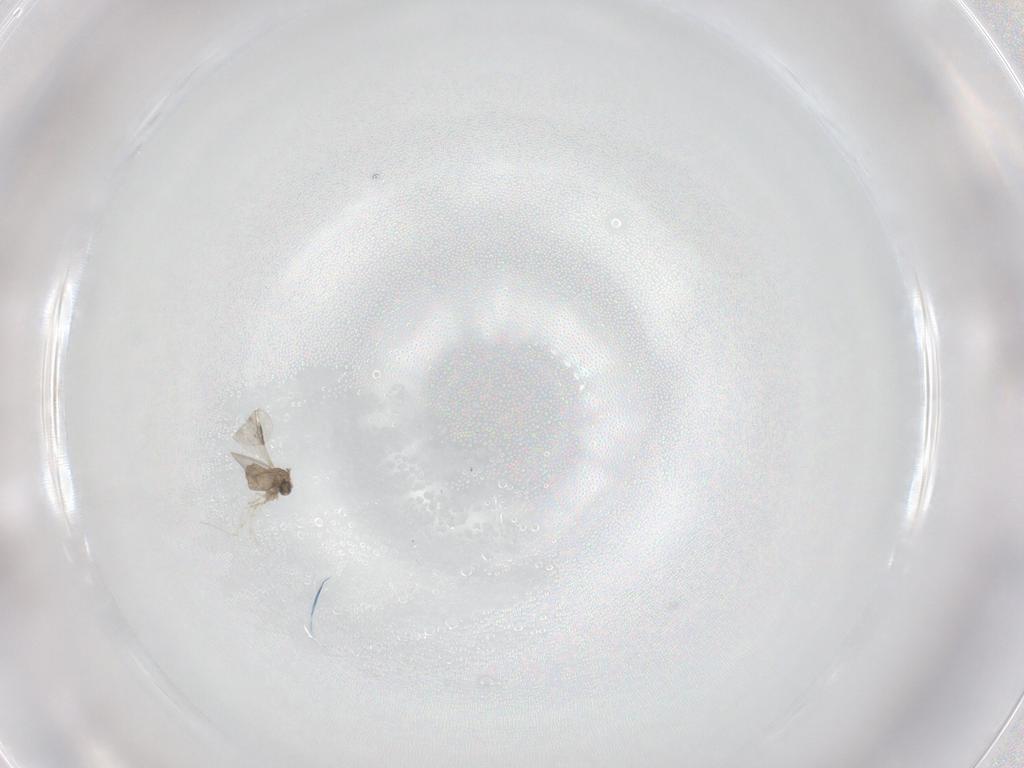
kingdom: Animalia
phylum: Arthropoda
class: Insecta
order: Diptera
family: Cecidomyiidae
